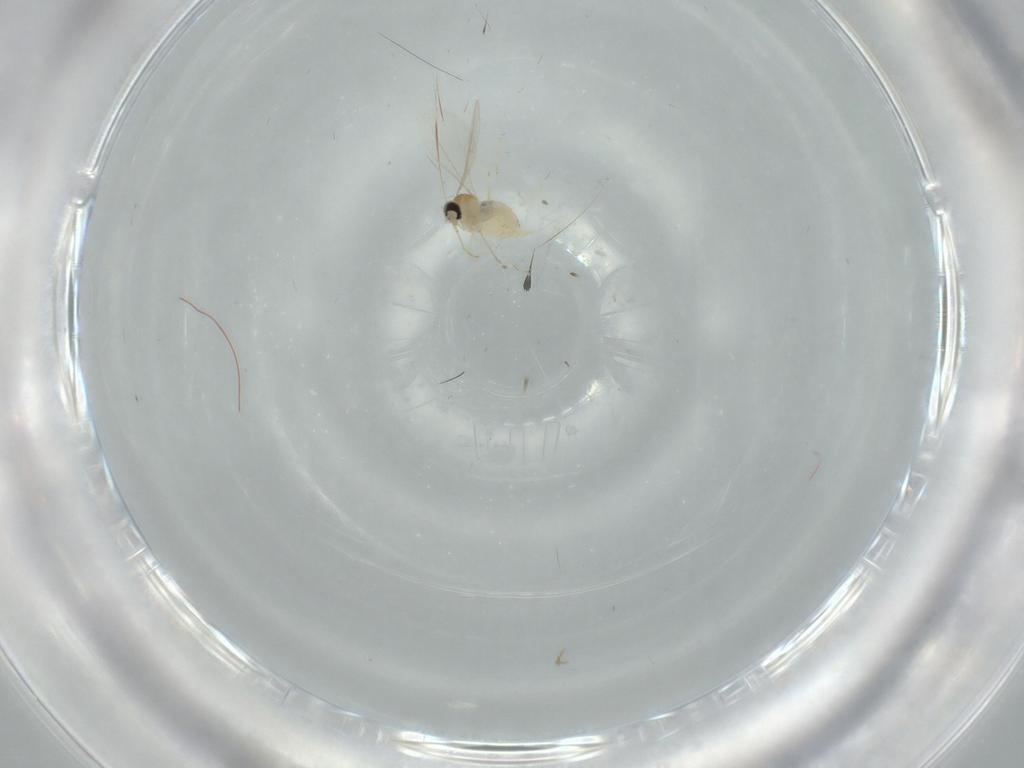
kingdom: Animalia
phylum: Arthropoda
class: Insecta
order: Diptera
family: Cecidomyiidae
